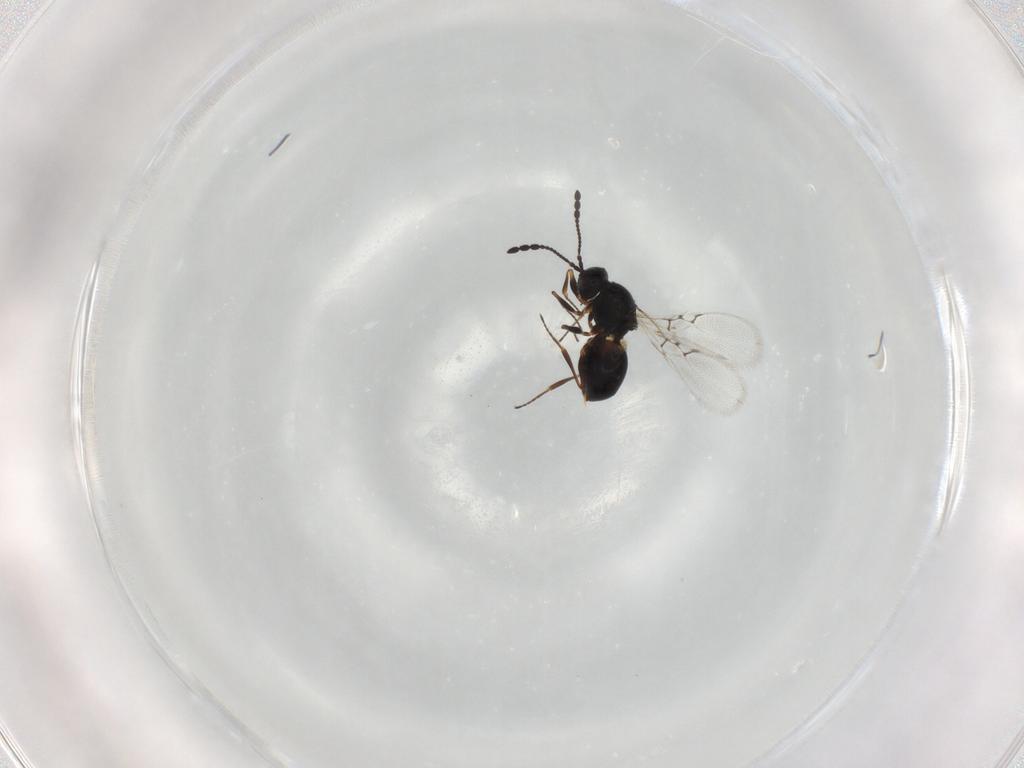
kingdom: Animalia
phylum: Arthropoda
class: Insecta
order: Hymenoptera
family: Figitidae
